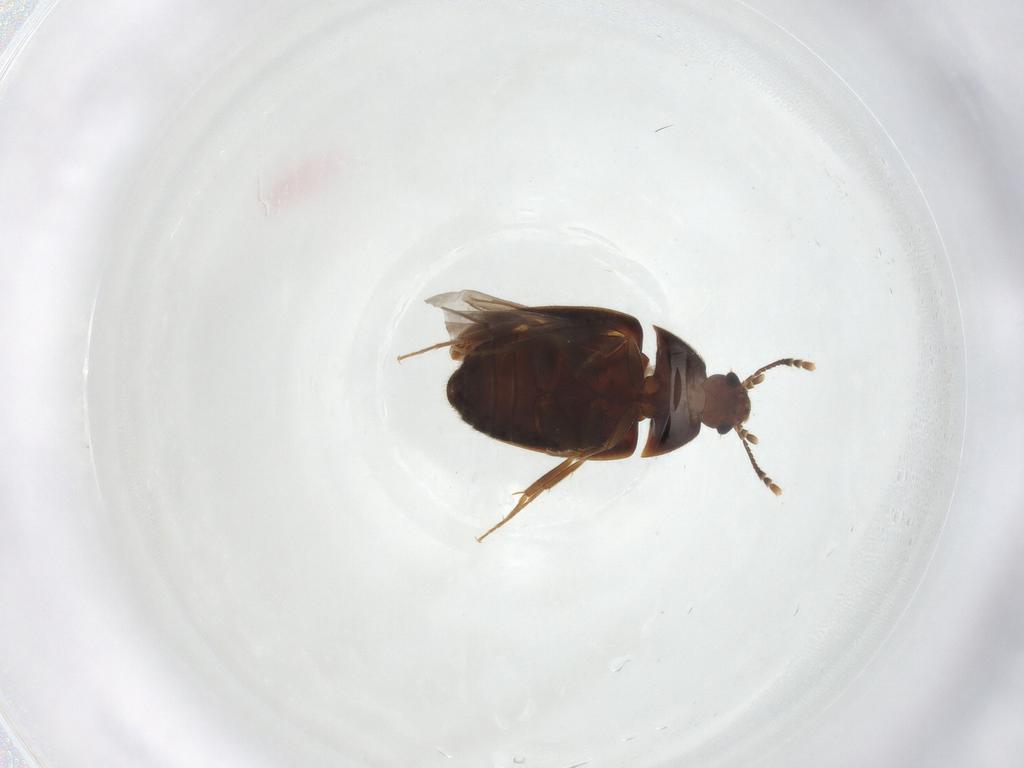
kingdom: Animalia
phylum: Arthropoda
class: Insecta
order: Coleoptera
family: Mycetophagidae
